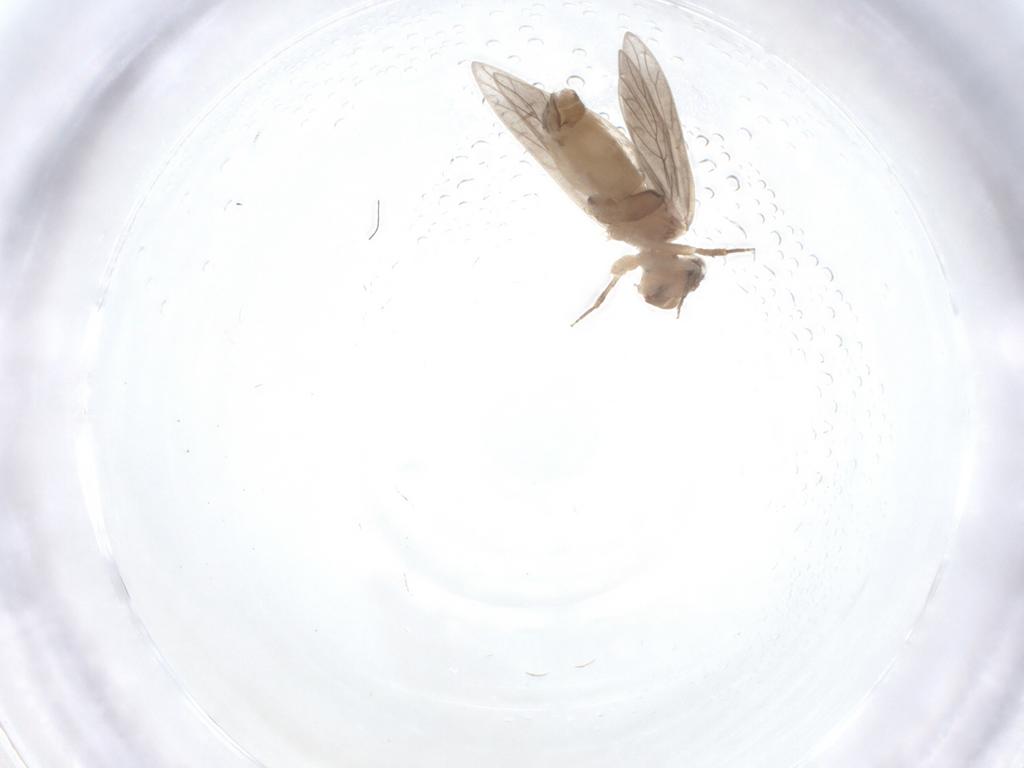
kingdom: Animalia
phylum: Arthropoda
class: Insecta
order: Psocodea
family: Lepidopsocidae
